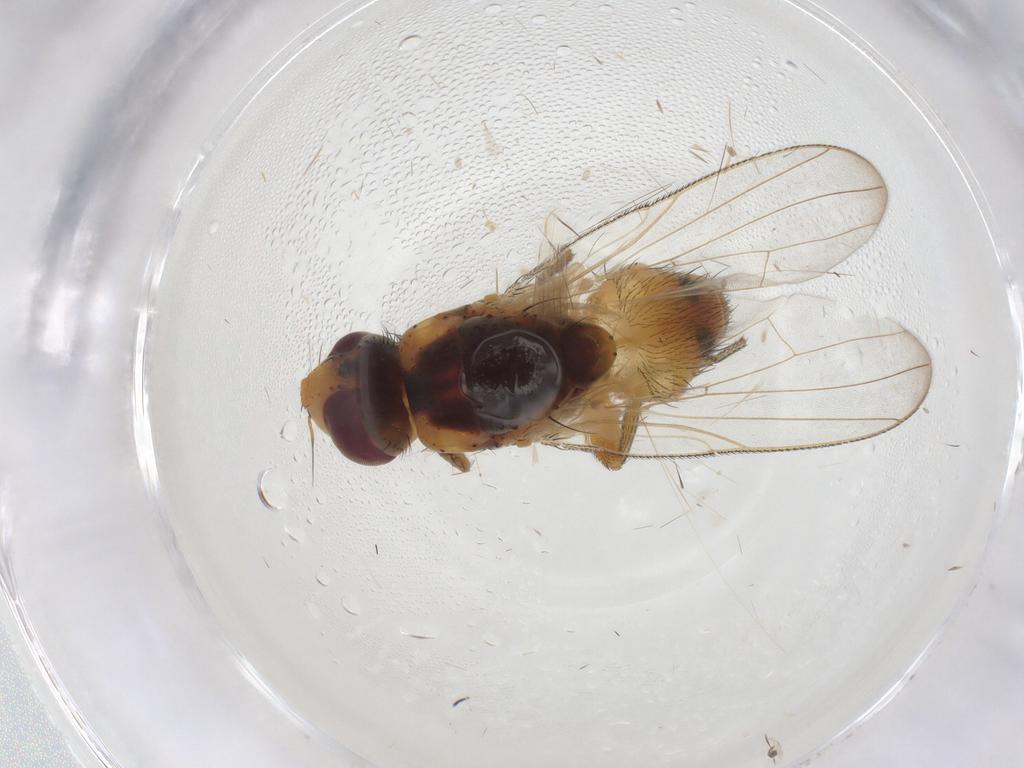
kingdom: Animalia
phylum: Arthropoda
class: Insecta
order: Diptera
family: Muscidae
